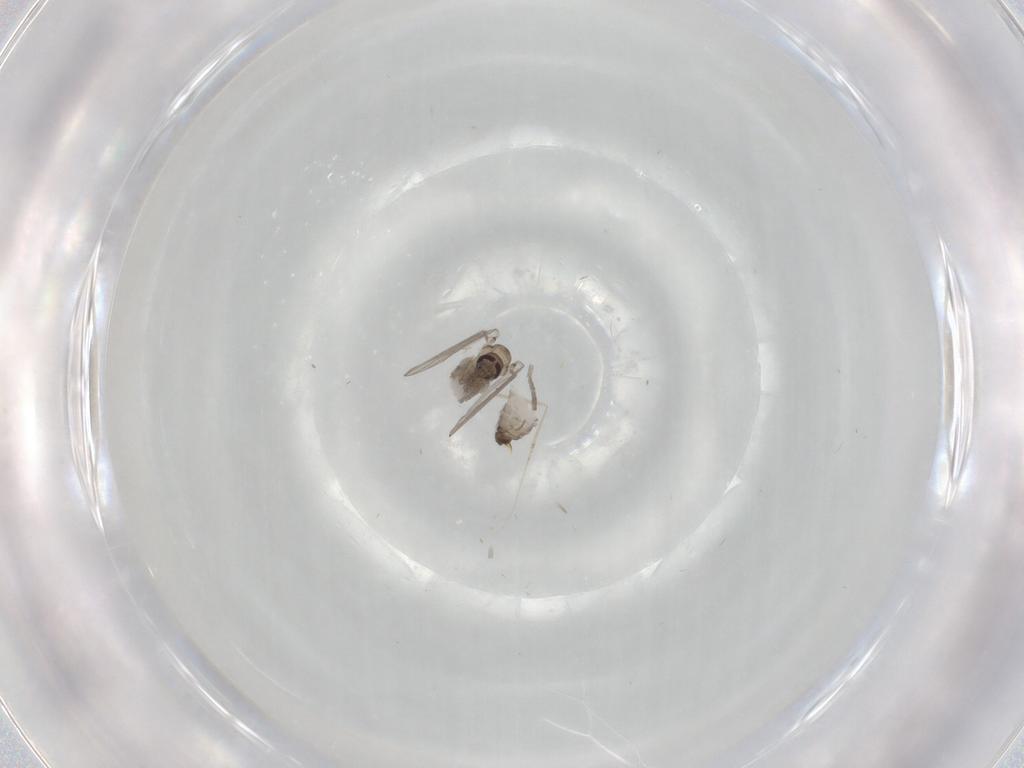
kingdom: Animalia
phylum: Arthropoda
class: Insecta
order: Diptera
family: Psychodidae
